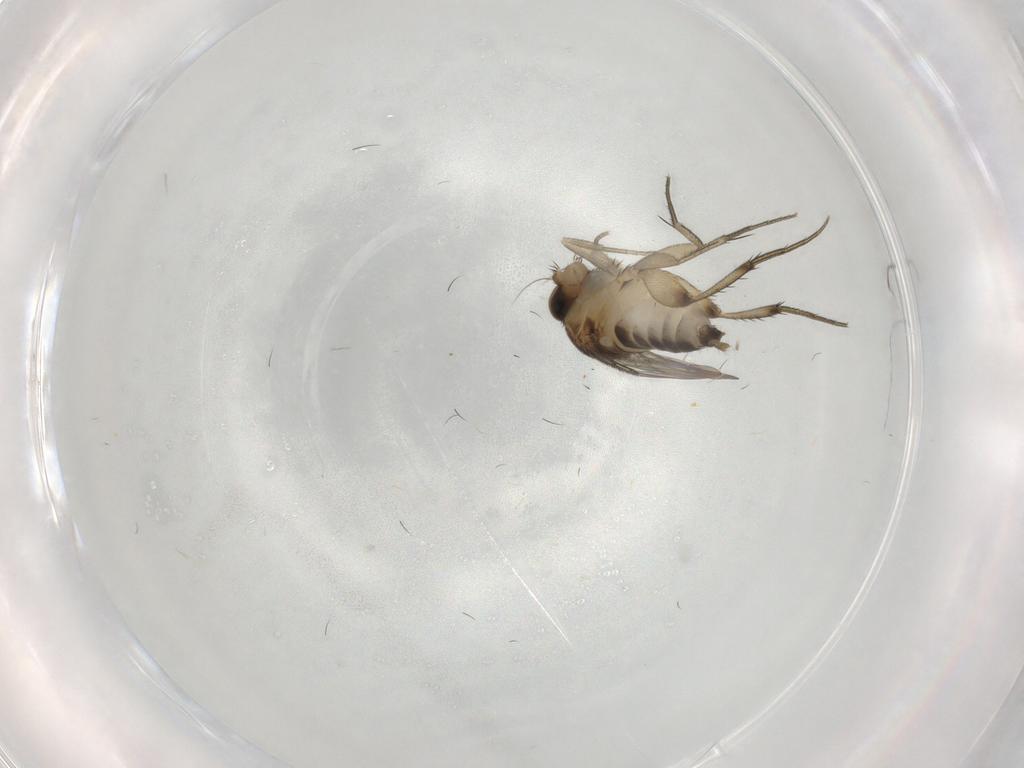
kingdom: Animalia
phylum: Arthropoda
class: Insecta
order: Diptera
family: Phoridae
